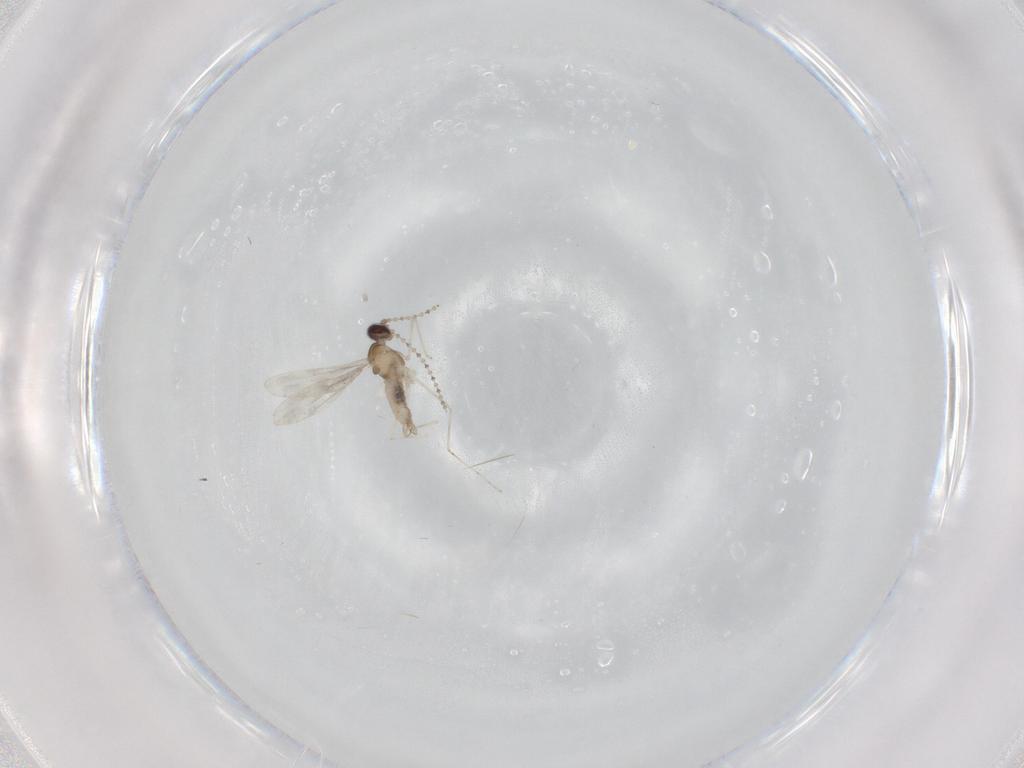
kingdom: Animalia
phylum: Arthropoda
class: Insecta
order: Diptera
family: Cecidomyiidae
